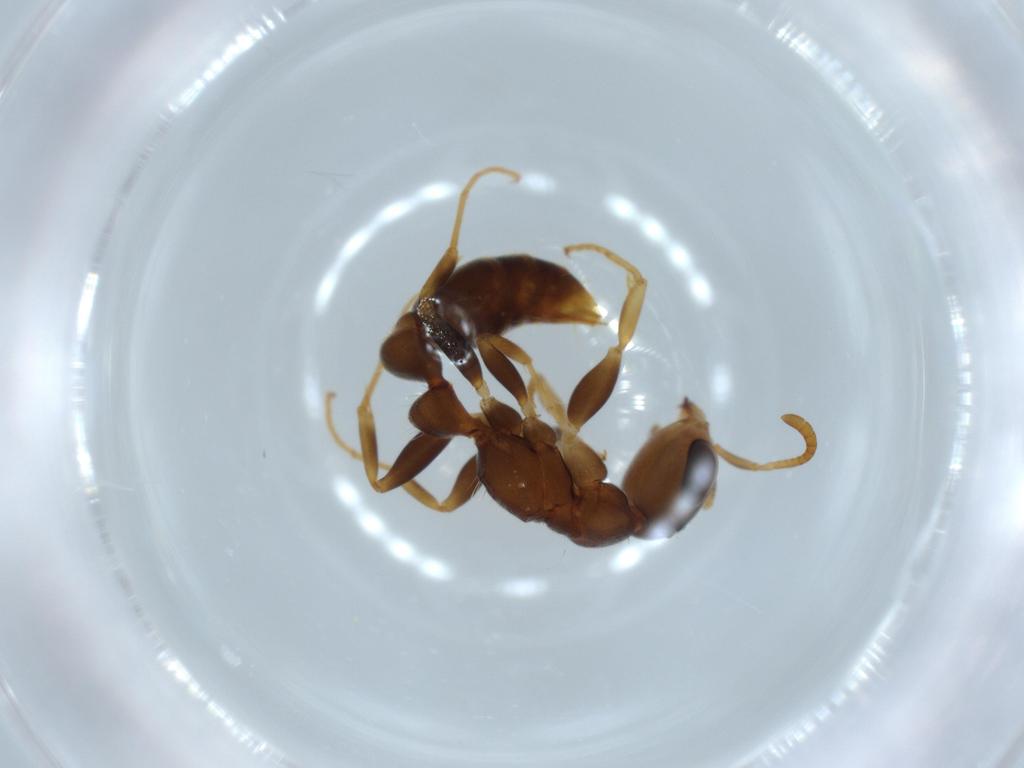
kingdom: Animalia
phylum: Arthropoda
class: Insecta
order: Hymenoptera
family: Formicidae
